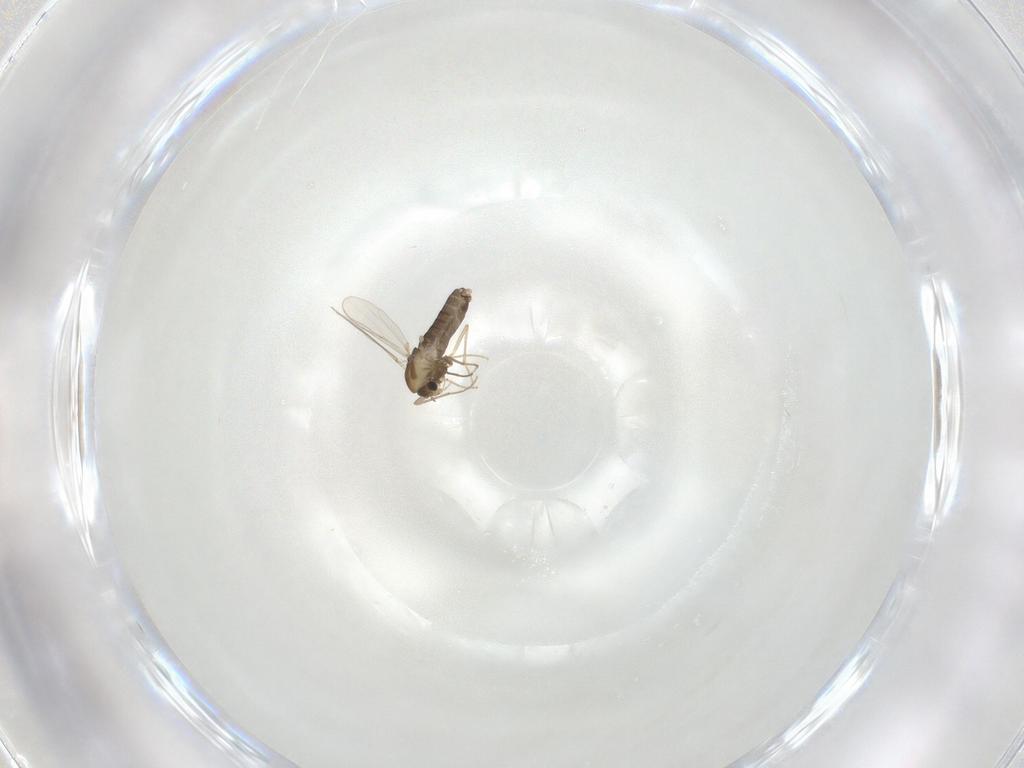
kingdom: Animalia
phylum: Arthropoda
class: Insecta
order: Diptera
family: Chironomidae
